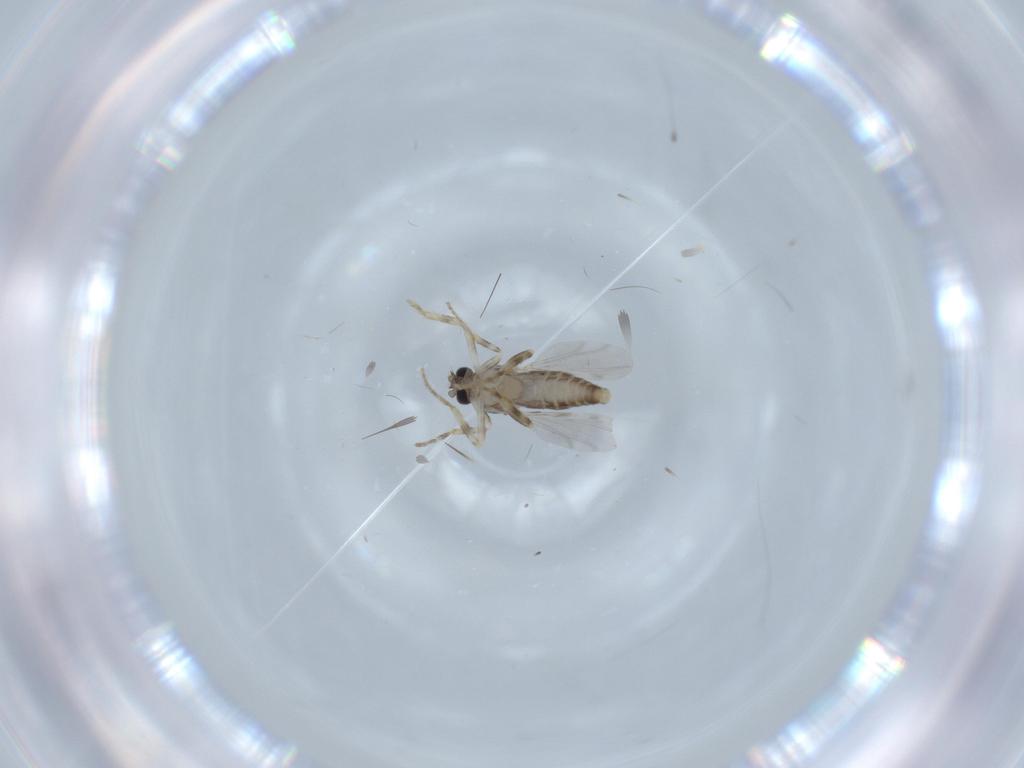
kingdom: Animalia
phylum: Arthropoda
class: Insecta
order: Diptera
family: Ceratopogonidae
